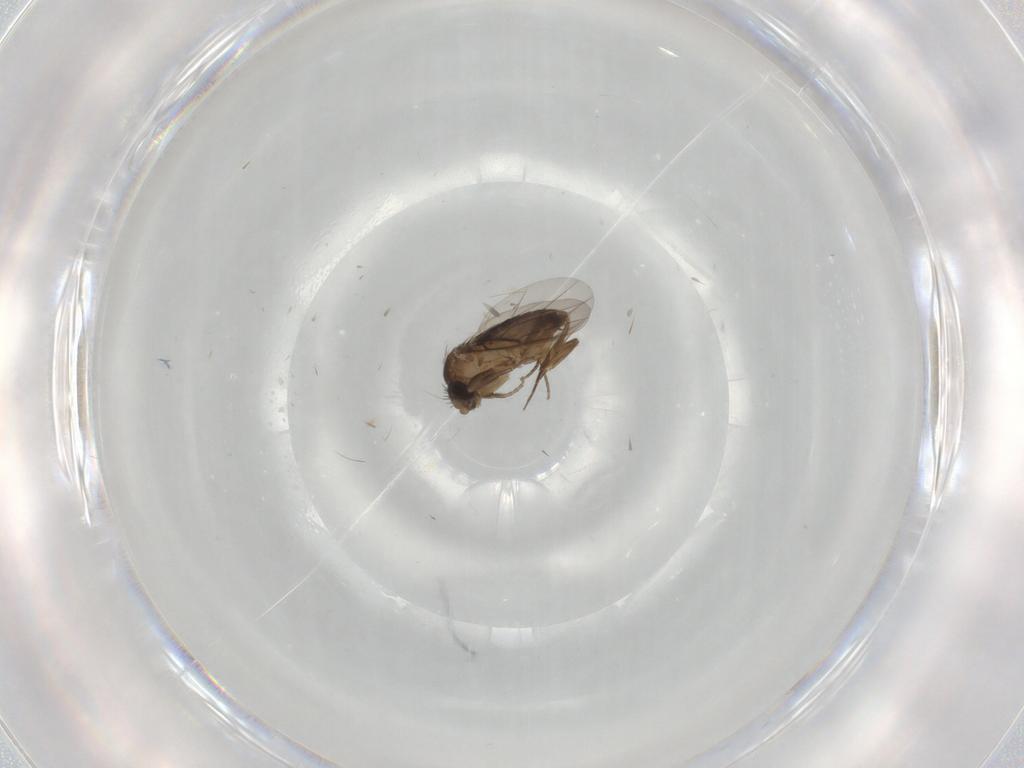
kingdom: Animalia
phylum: Arthropoda
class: Insecta
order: Diptera
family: Phoridae
